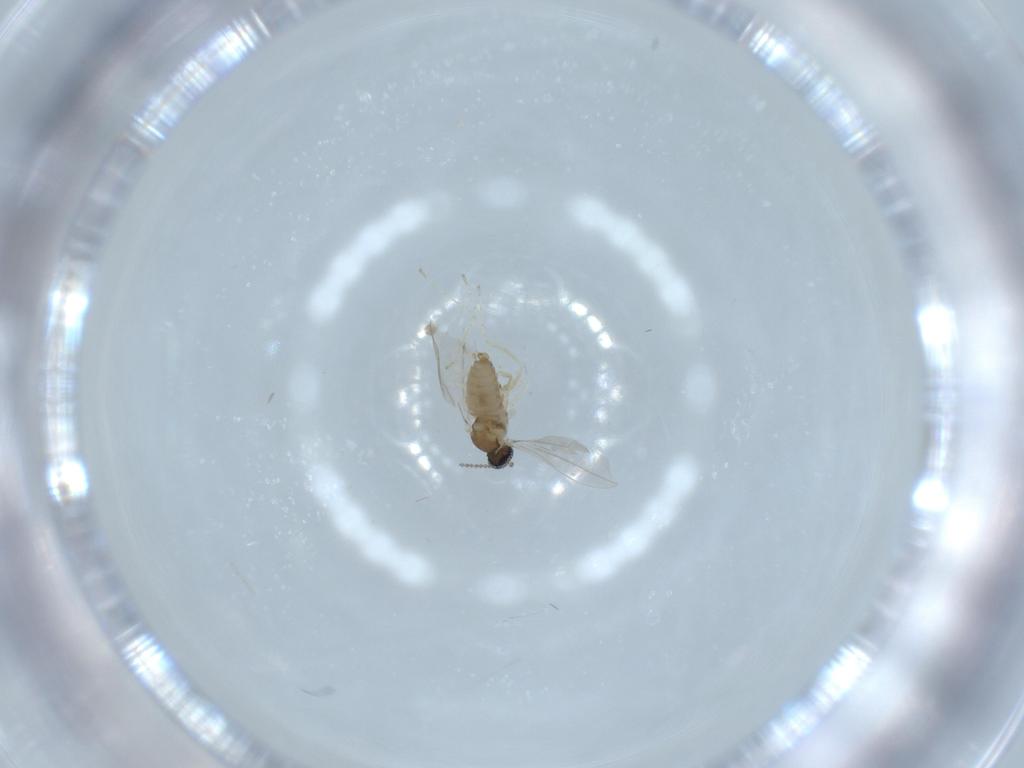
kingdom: Animalia
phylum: Arthropoda
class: Insecta
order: Diptera
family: Cecidomyiidae
